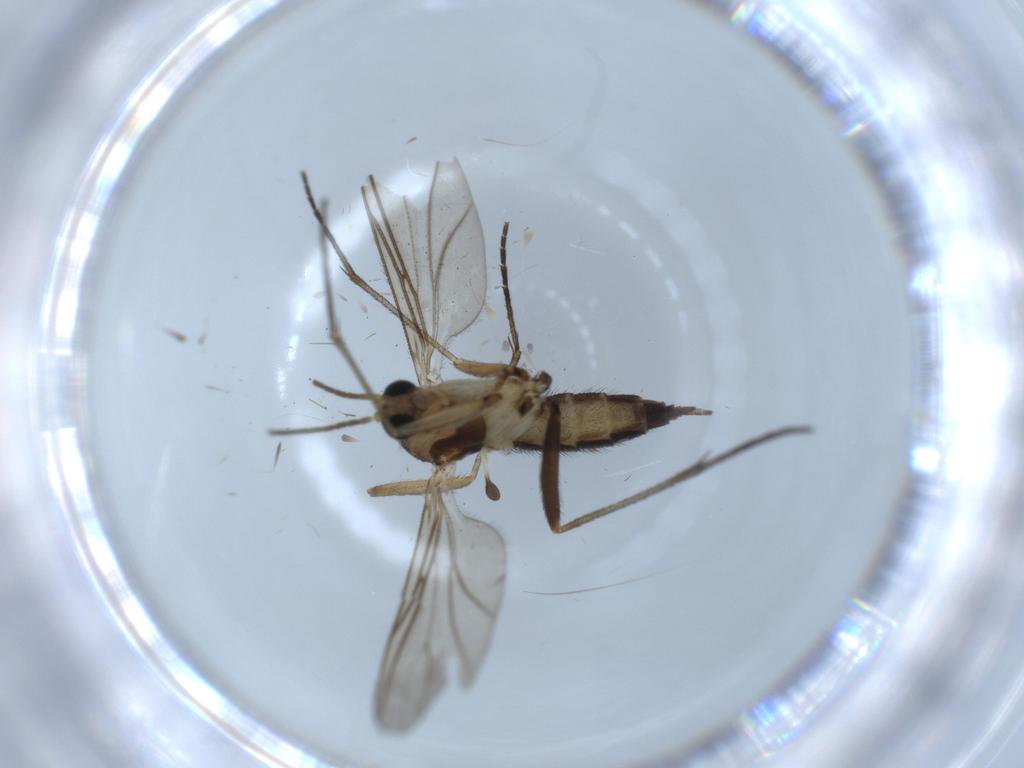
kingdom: Animalia
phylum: Arthropoda
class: Insecta
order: Diptera
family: Sciaridae
